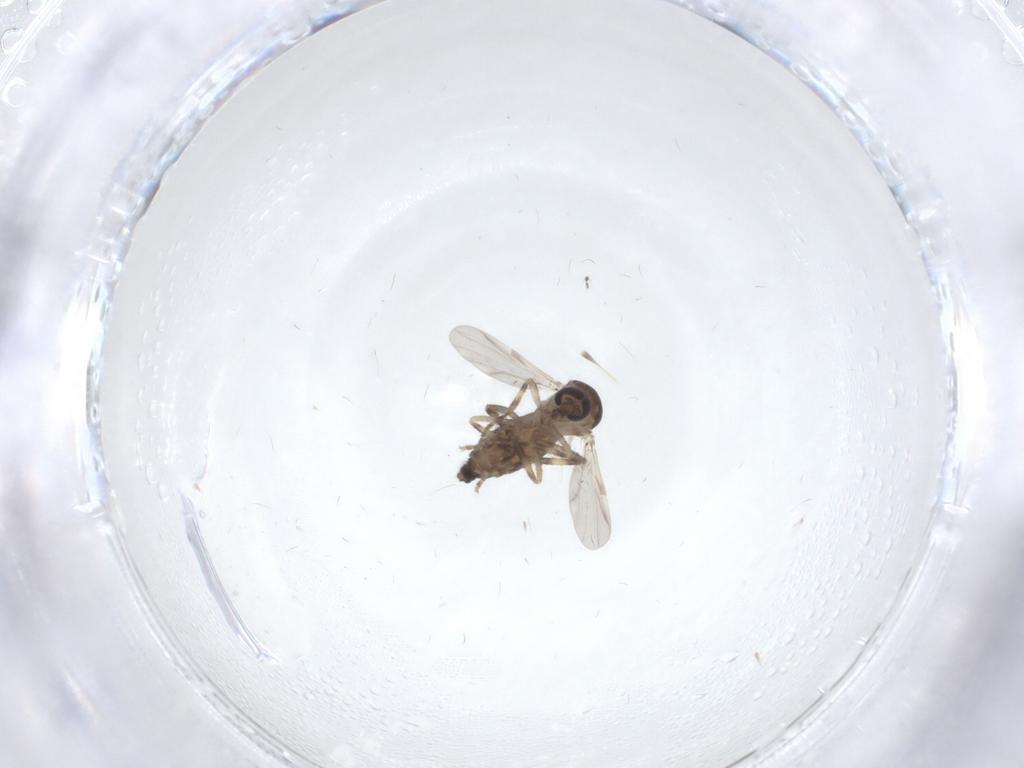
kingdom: Animalia
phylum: Arthropoda
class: Insecta
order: Diptera
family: Ceratopogonidae
